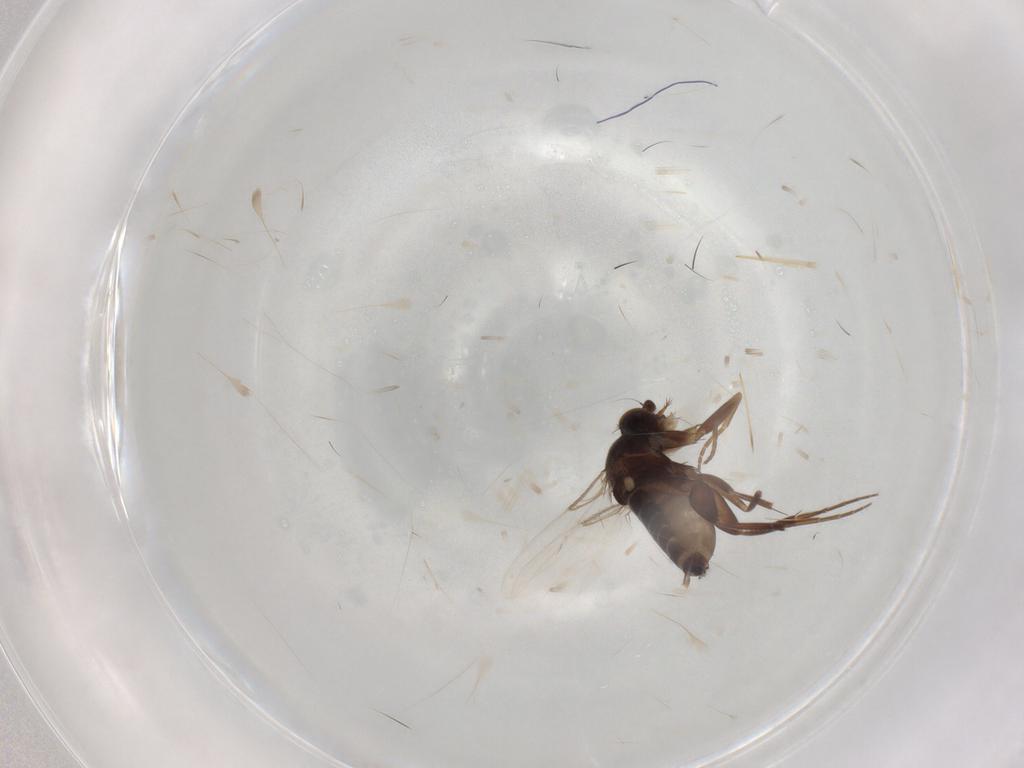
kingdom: Animalia
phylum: Arthropoda
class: Insecta
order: Diptera
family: Phoridae
